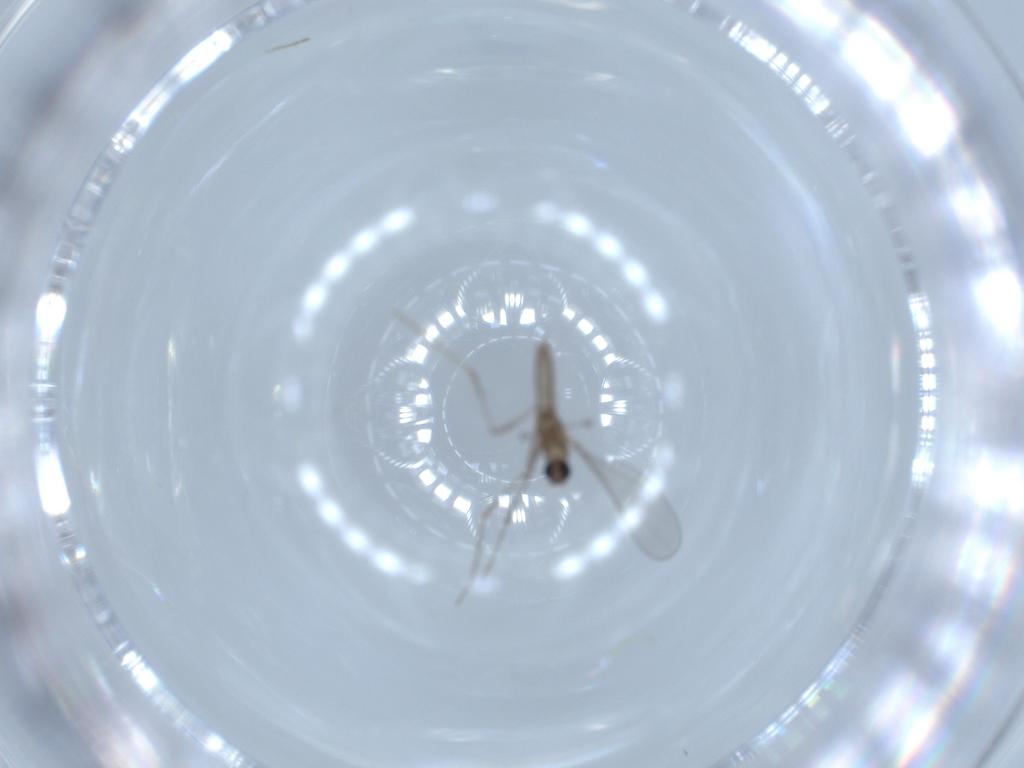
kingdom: Animalia
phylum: Arthropoda
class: Insecta
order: Diptera
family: Cecidomyiidae
